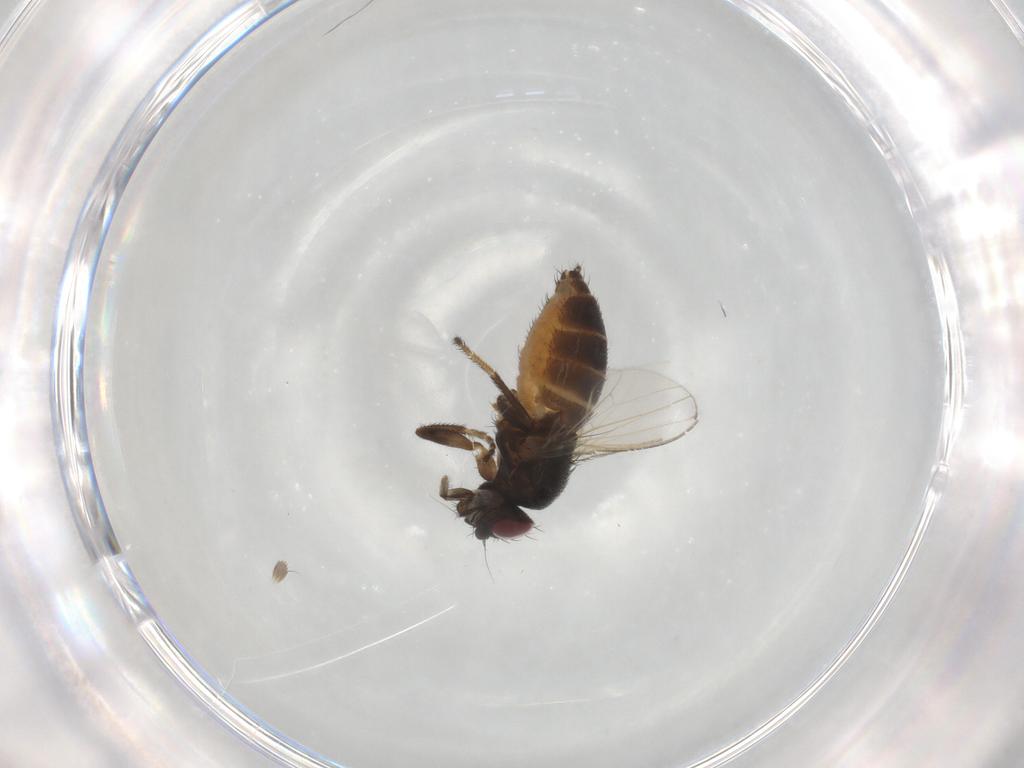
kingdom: Animalia
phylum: Arthropoda
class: Insecta
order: Diptera
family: Milichiidae
